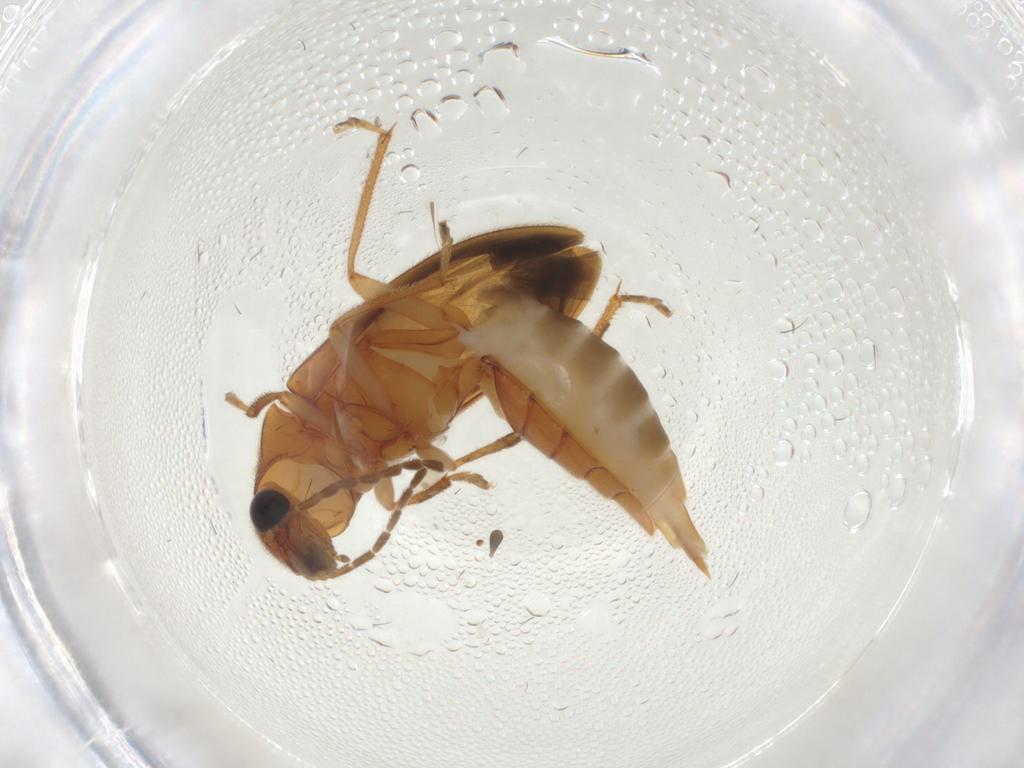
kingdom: Animalia
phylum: Arthropoda
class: Insecta
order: Coleoptera
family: Ptilodactylidae
